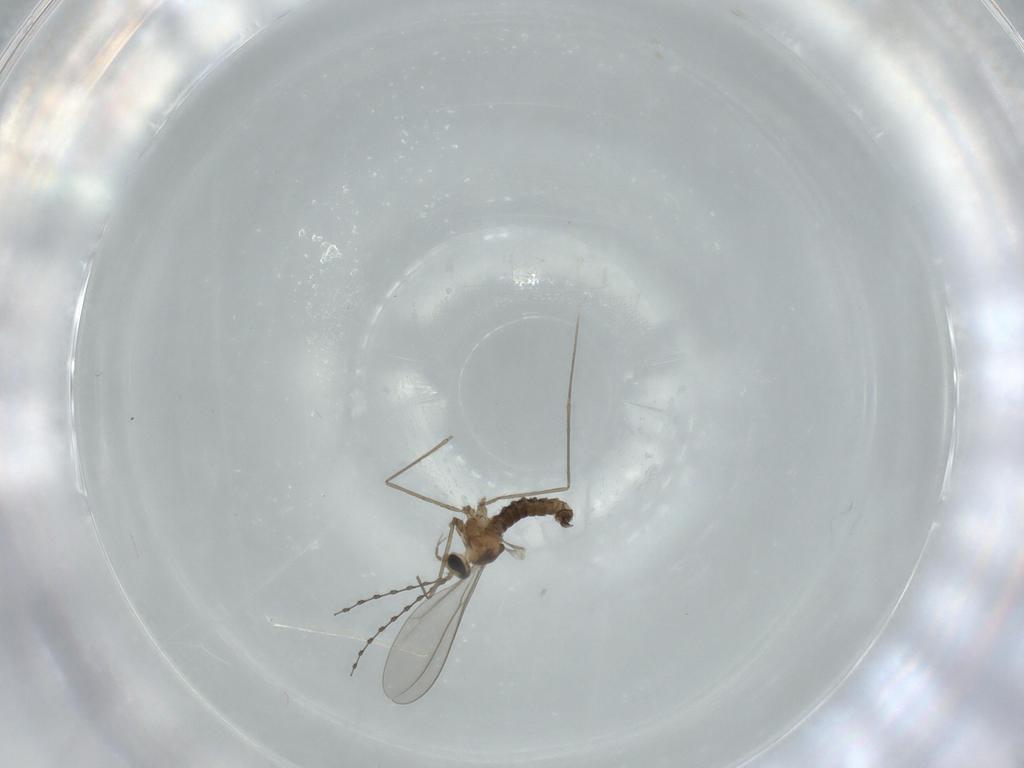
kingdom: Animalia
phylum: Arthropoda
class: Insecta
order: Diptera
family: Cecidomyiidae
